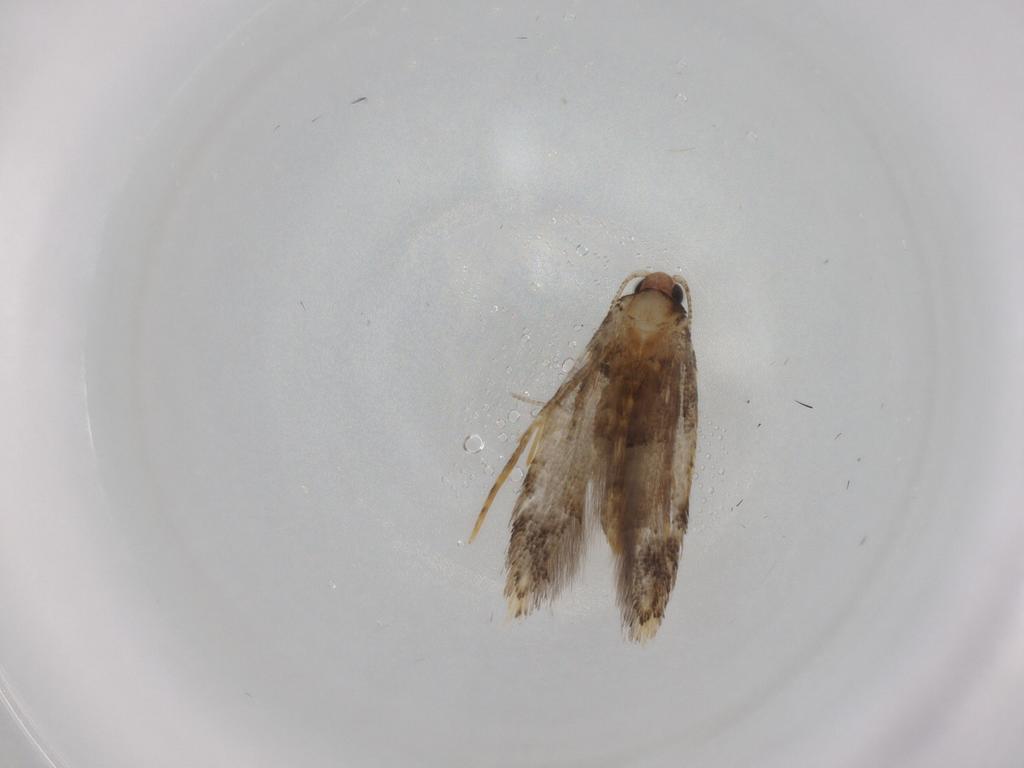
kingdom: Animalia
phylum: Arthropoda
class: Insecta
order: Lepidoptera
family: Tineidae
